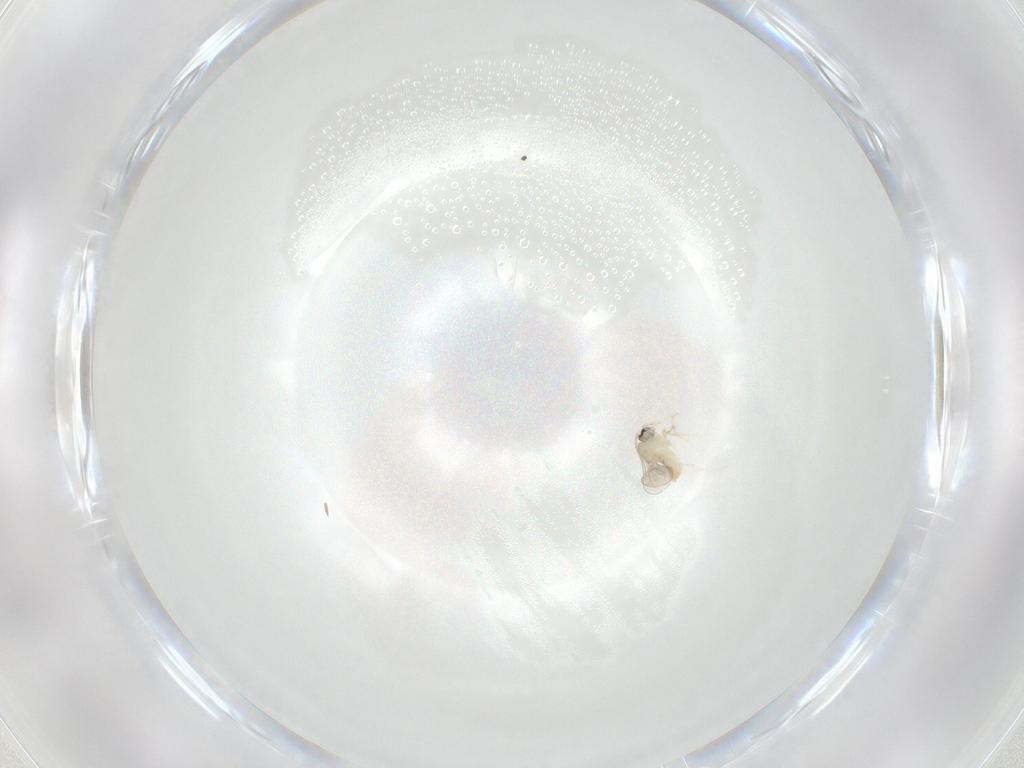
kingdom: Animalia
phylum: Arthropoda
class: Insecta
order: Diptera
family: Cecidomyiidae
